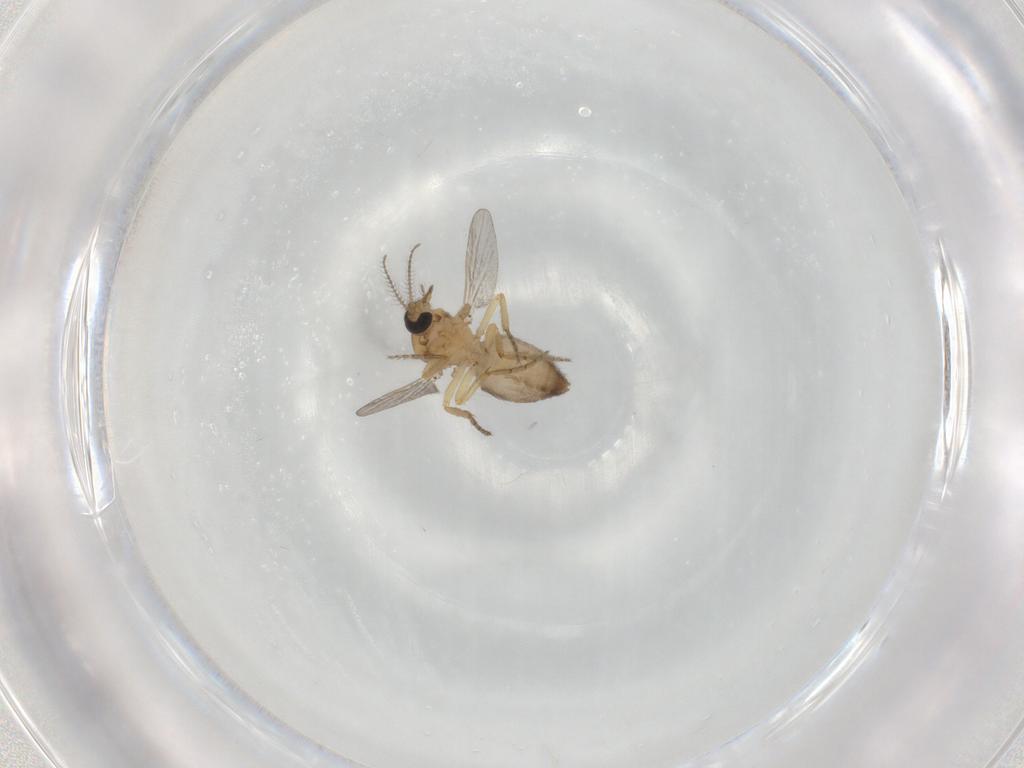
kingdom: Animalia
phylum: Arthropoda
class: Insecta
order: Diptera
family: Ceratopogonidae
